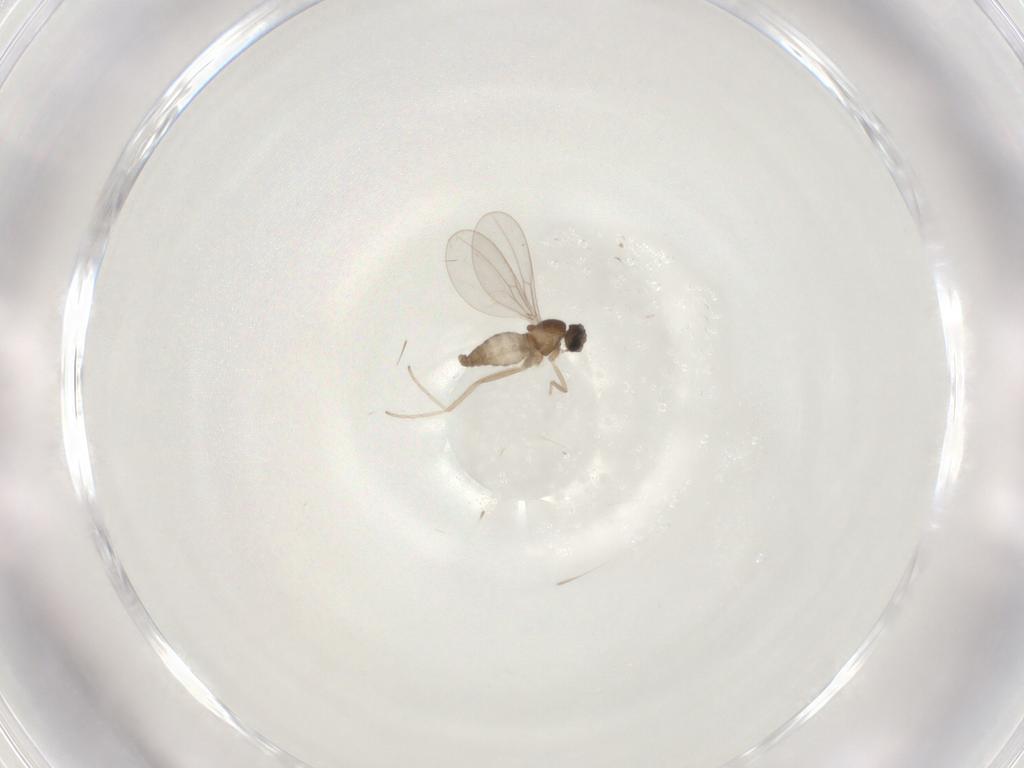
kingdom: Animalia
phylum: Arthropoda
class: Insecta
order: Diptera
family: Cecidomyiidae
